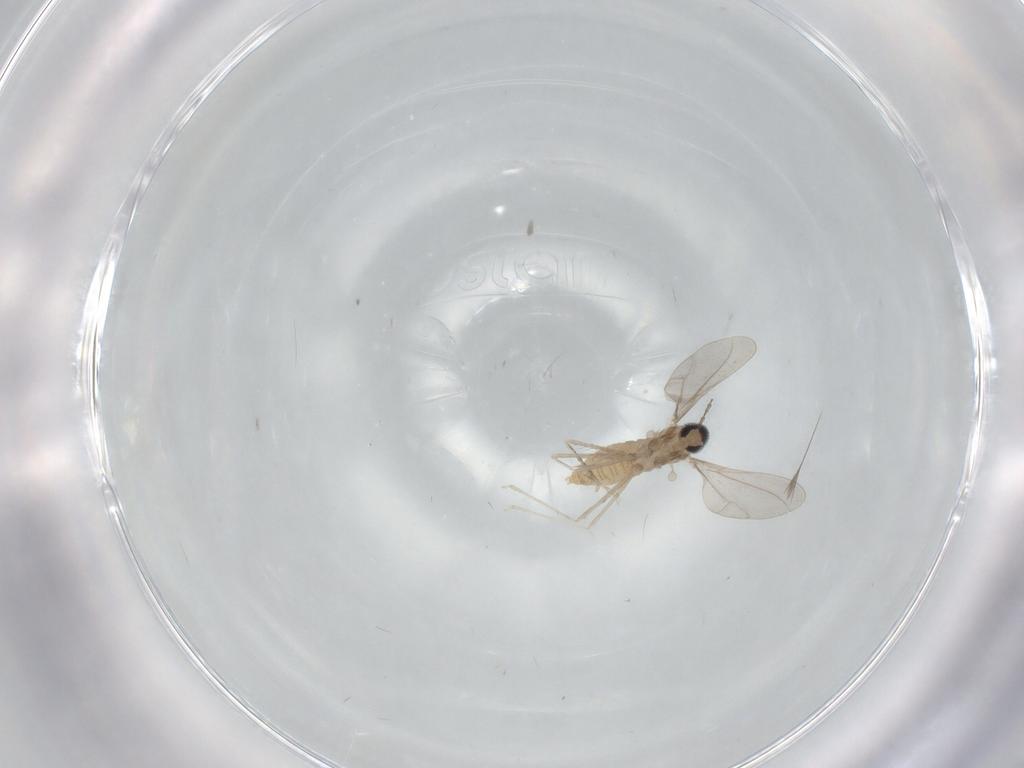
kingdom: Animalia
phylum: Arthropoda
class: Insecta
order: Diptera
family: Cecidomyiidae
